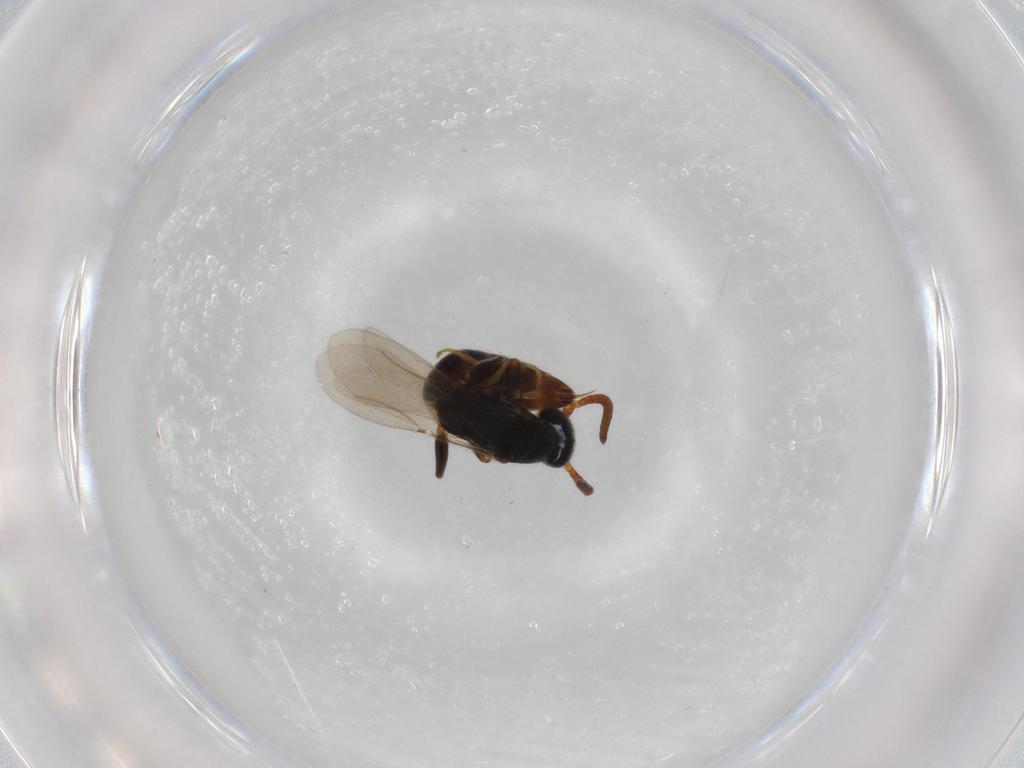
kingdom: Animalia
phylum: Arthropoda
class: Insecta
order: Hymenoptera
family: Bethylidae
